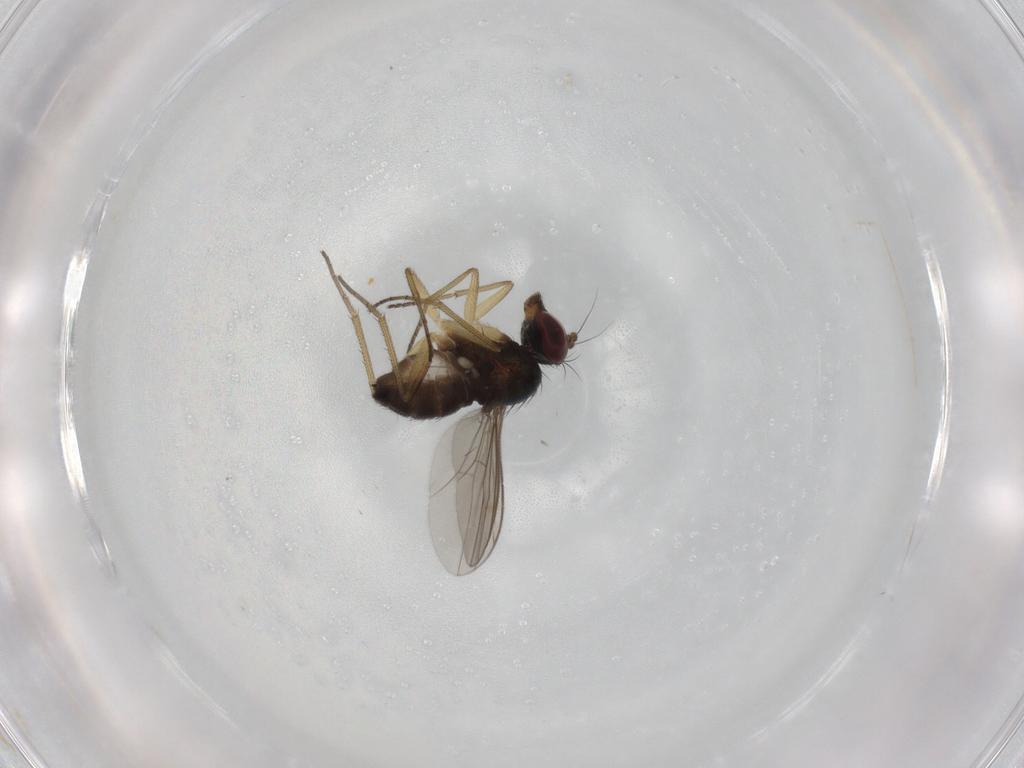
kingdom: Animalia
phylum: Arthropoda
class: Insecta
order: Diptera
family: Dolichopodidae
